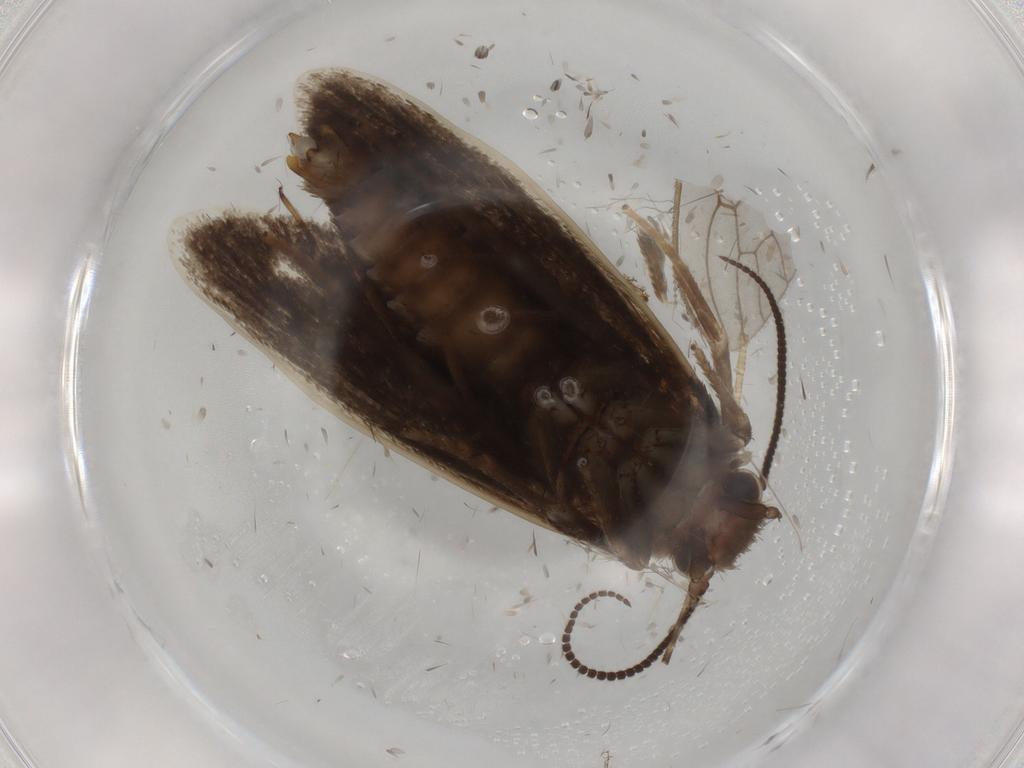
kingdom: Animalia
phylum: Arthropoda
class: Insecta
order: Lepidoptera
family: Tineidae
